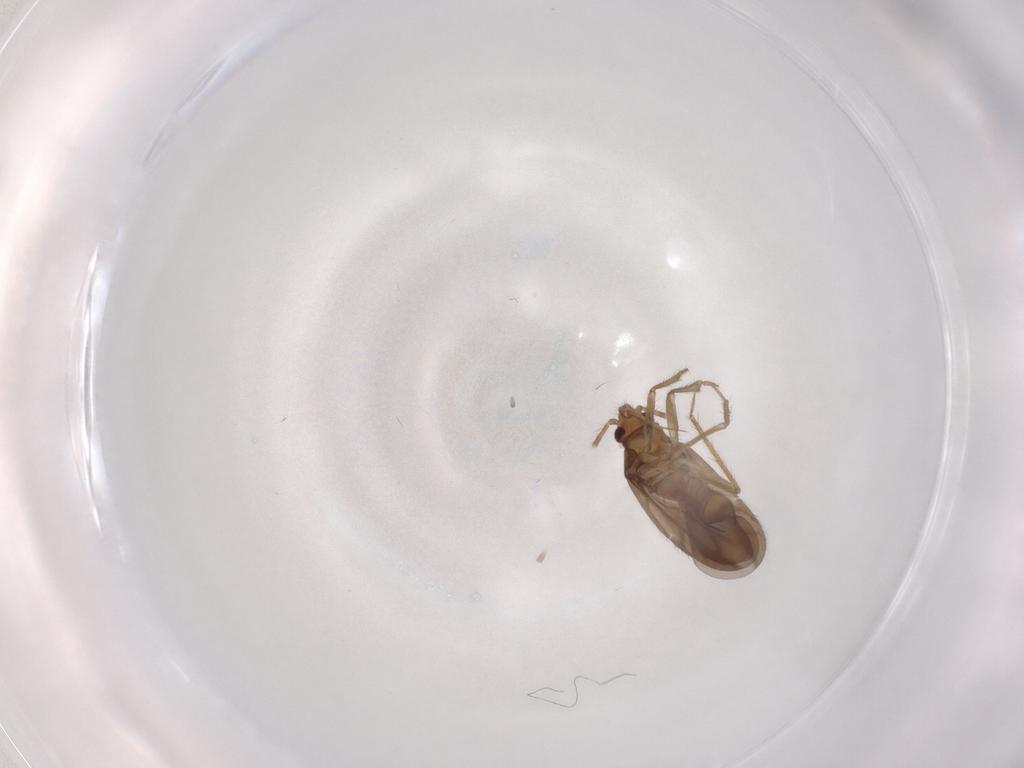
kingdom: Animalia
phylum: Arthropoda
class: Insecta
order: Hemiptera
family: Ceratocombidae
